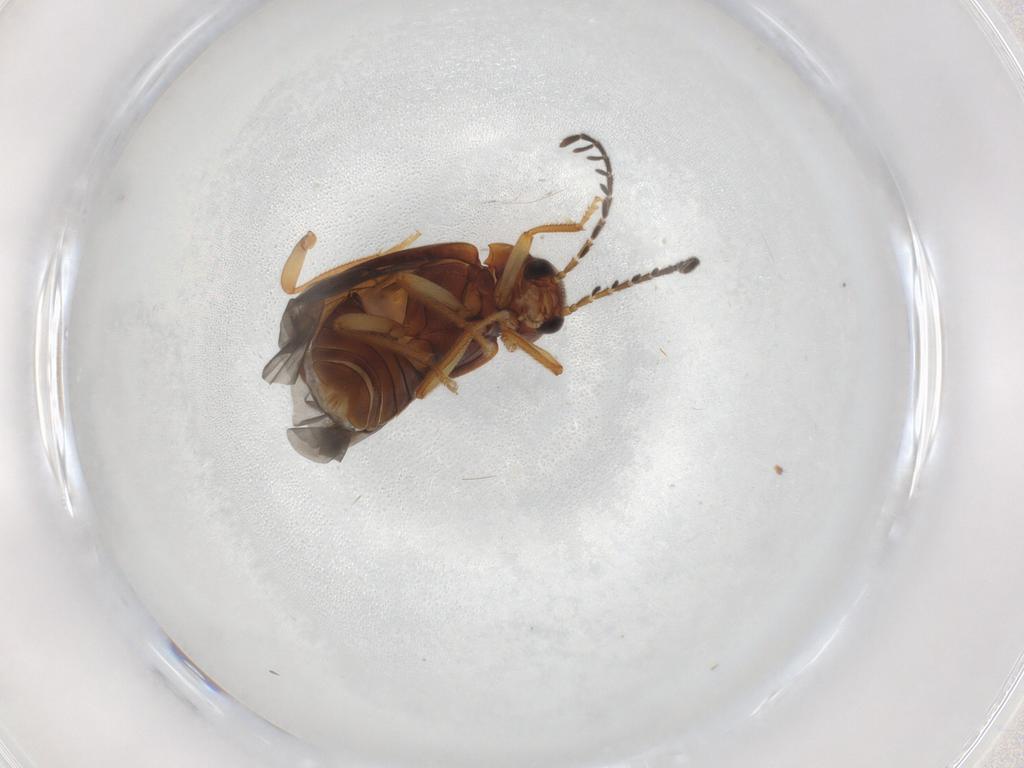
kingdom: Animalia
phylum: Arthropoda
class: Insecta
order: Coleoptera
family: Ptilodactylidae
